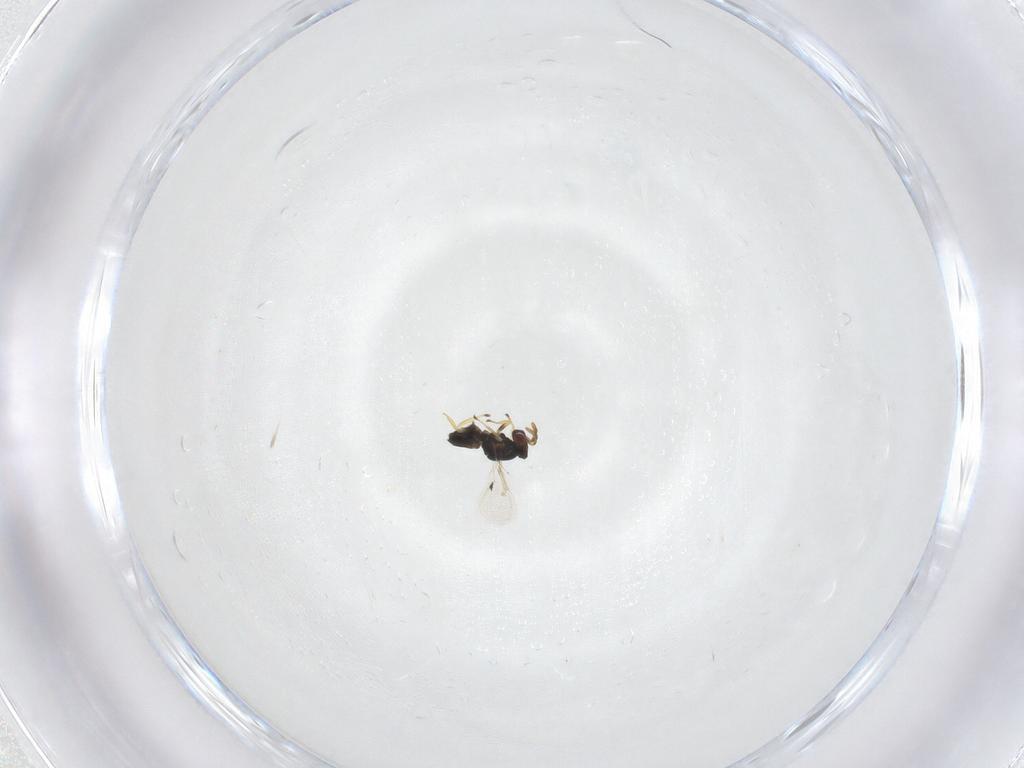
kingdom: Animalia
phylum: Arthropoda
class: Insecta
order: Hymenoptera
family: Eulophidae
